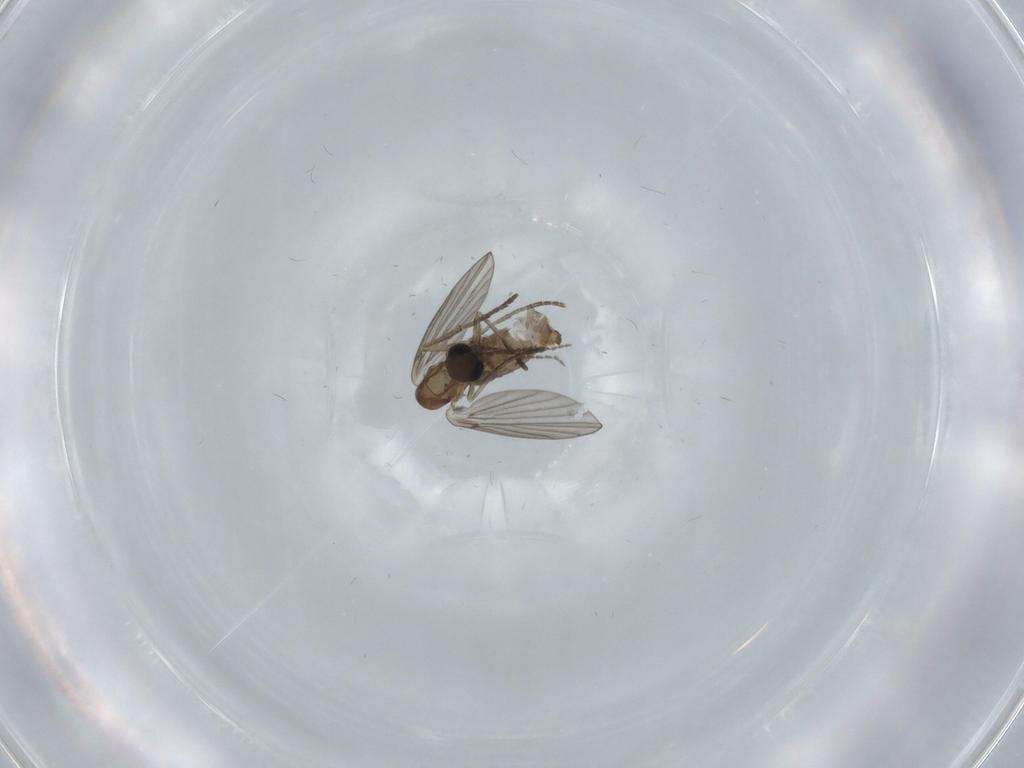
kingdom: Animalia
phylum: Arthropoda
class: Insecta
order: Diptera
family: Psychodidae
